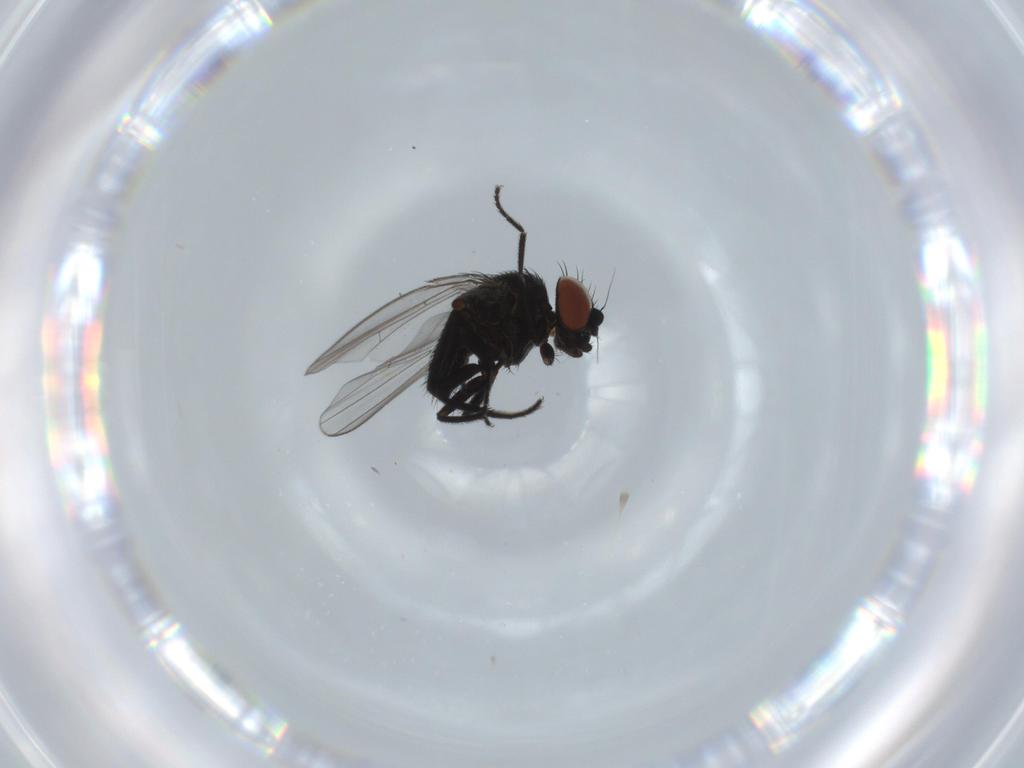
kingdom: Animalia
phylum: Arthropoda
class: Insecta
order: Diptera
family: Milichiidae
